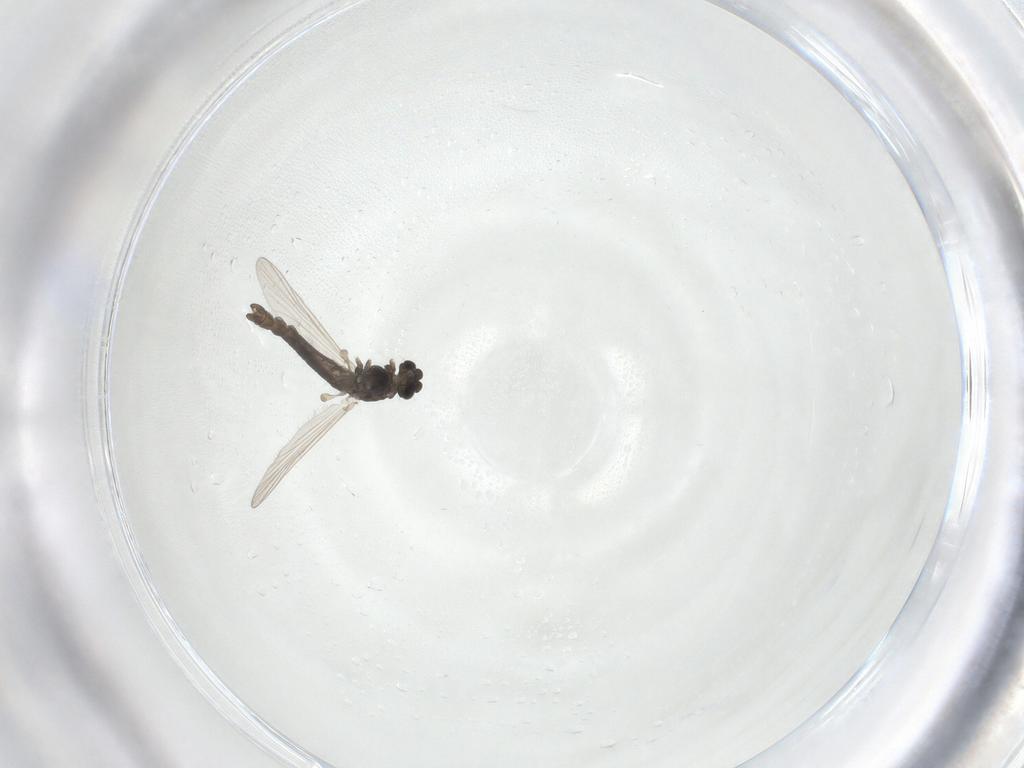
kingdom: Animalia
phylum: Arthropoda
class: Insecta
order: Diptera
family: Chironomidae
